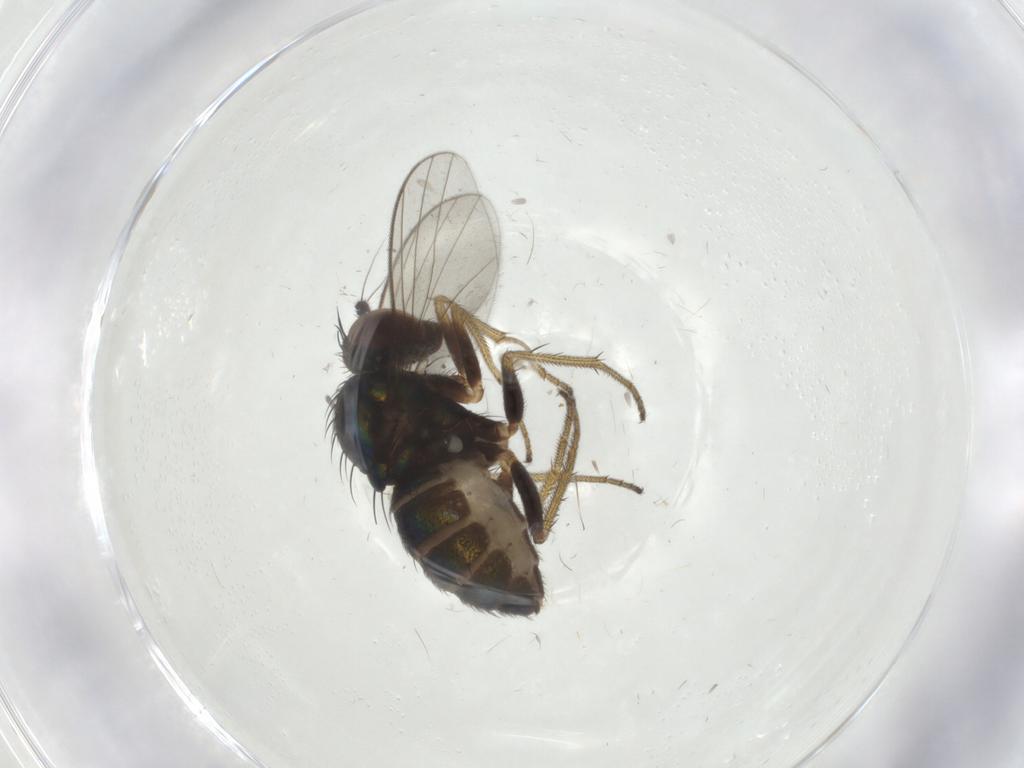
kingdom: Animalia
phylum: Arthropoda
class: Insecta
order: Diptera
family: Dolichopodidae
